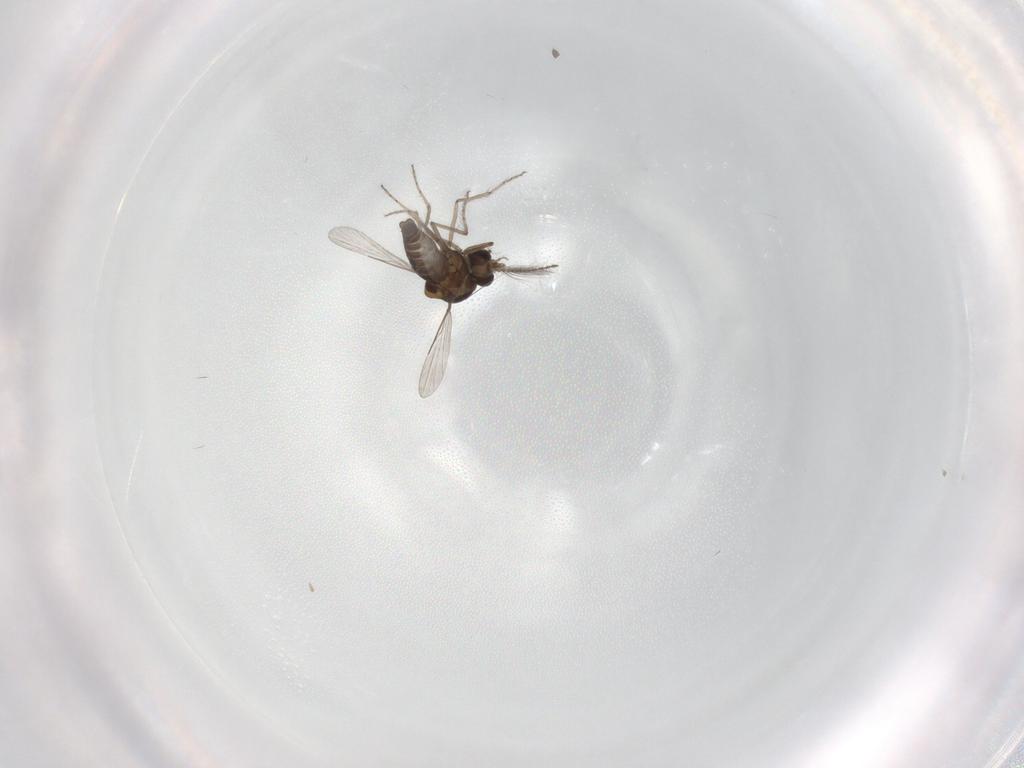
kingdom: Animalia
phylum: Arthropoda
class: Insecta
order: Diptera
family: Ceratopogonidae
